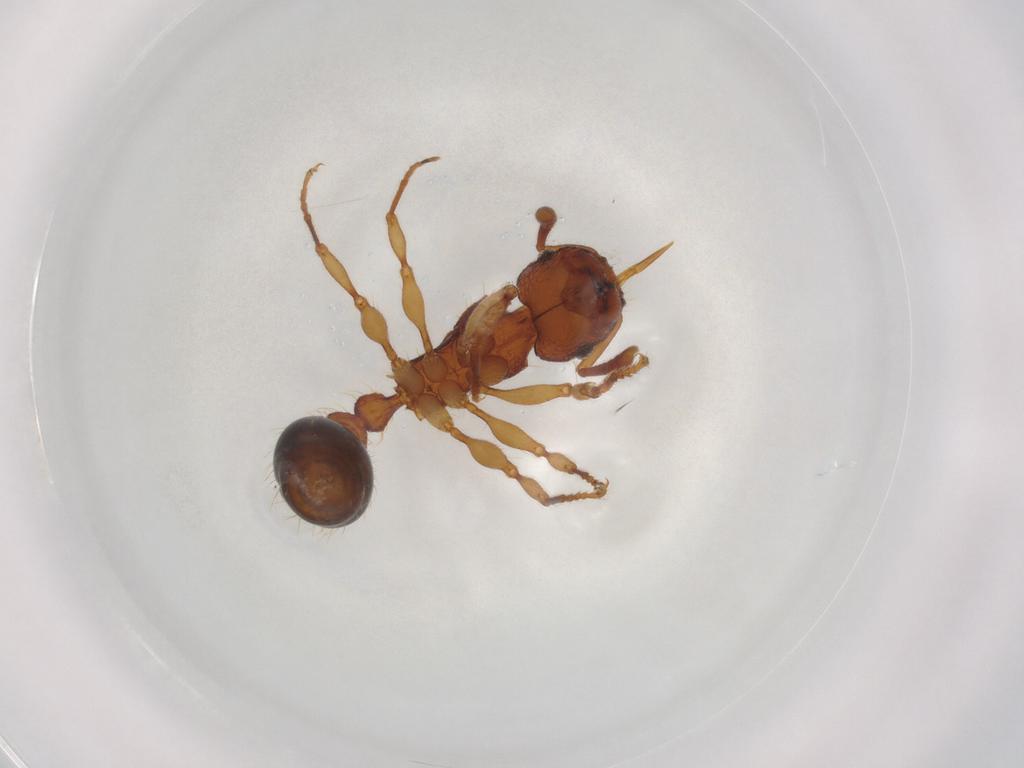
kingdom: Animalia
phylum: Arthropoda
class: Insecta
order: Hymenoptera
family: Formicidae
